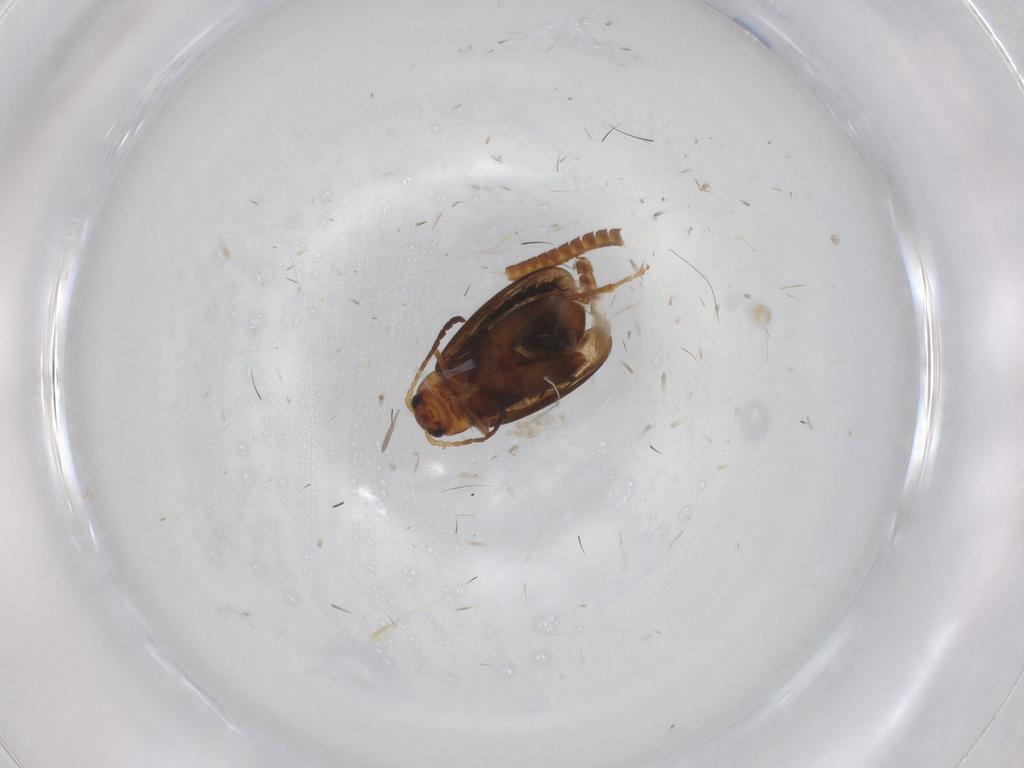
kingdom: Animalia
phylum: Arthropoda
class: Insecta
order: Coleoptera
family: Chrysomelidae
